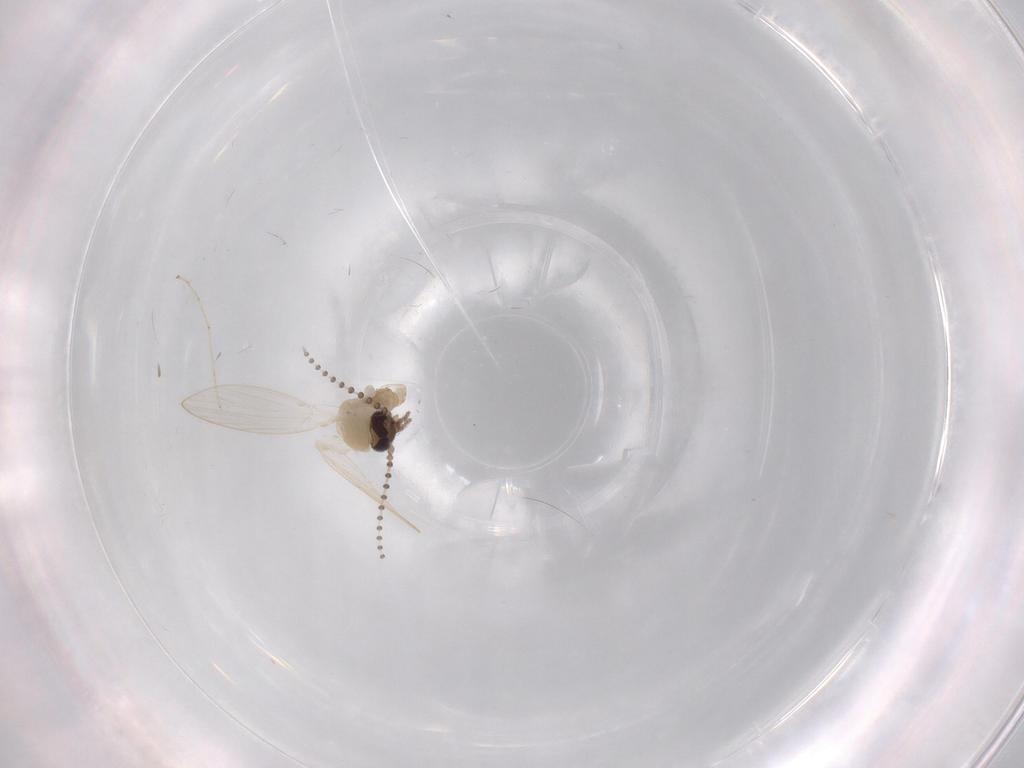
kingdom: Animalia
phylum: Arthropoda
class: Insecta
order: Diptera
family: Psychodidae
